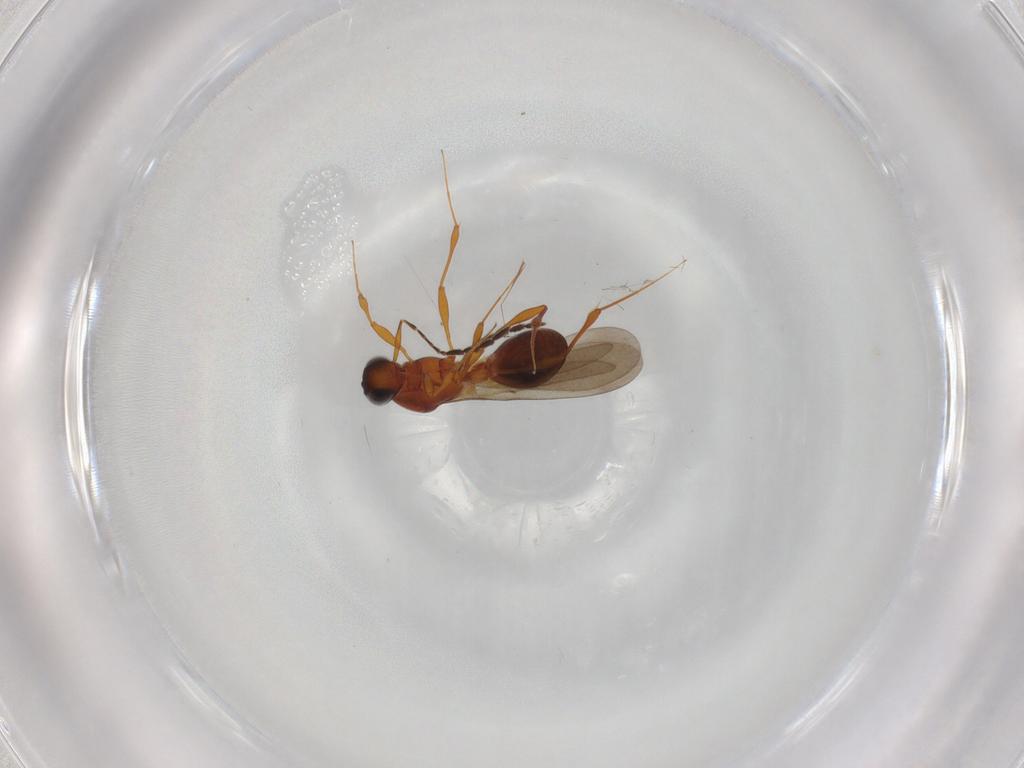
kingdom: Animalia
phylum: Arthropoda
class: Insecta
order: Hymenoptera
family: Platygastridae
